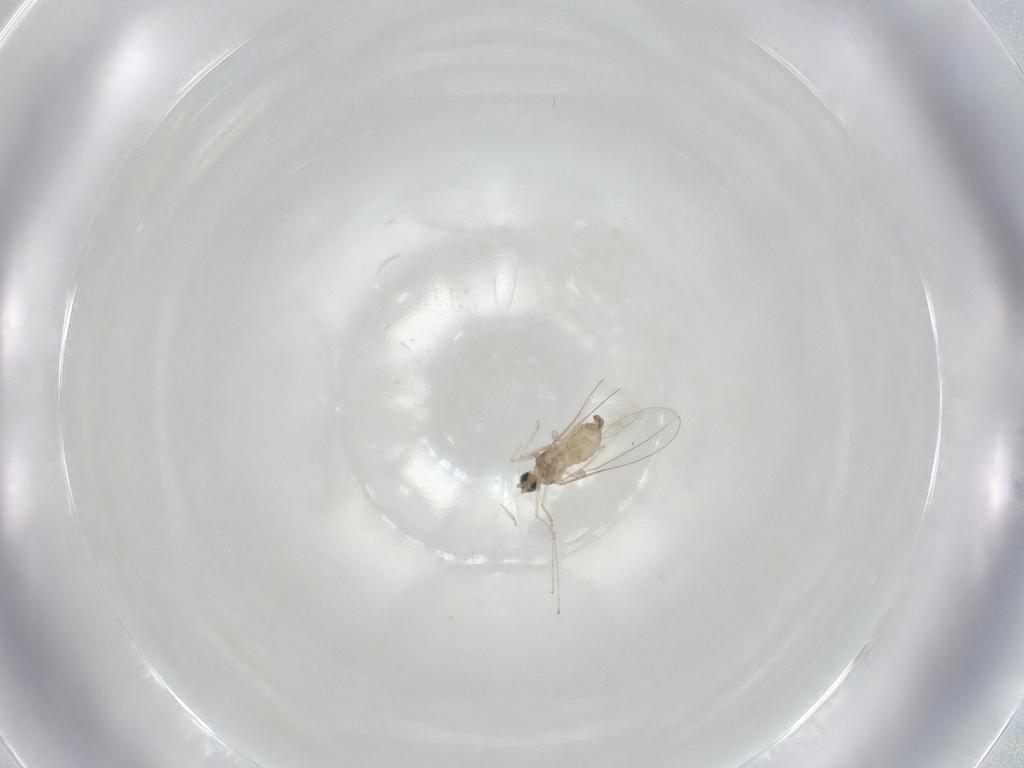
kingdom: Animalia
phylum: Arthropoda
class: Insecta
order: Diptera
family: Cecidomyiidae
